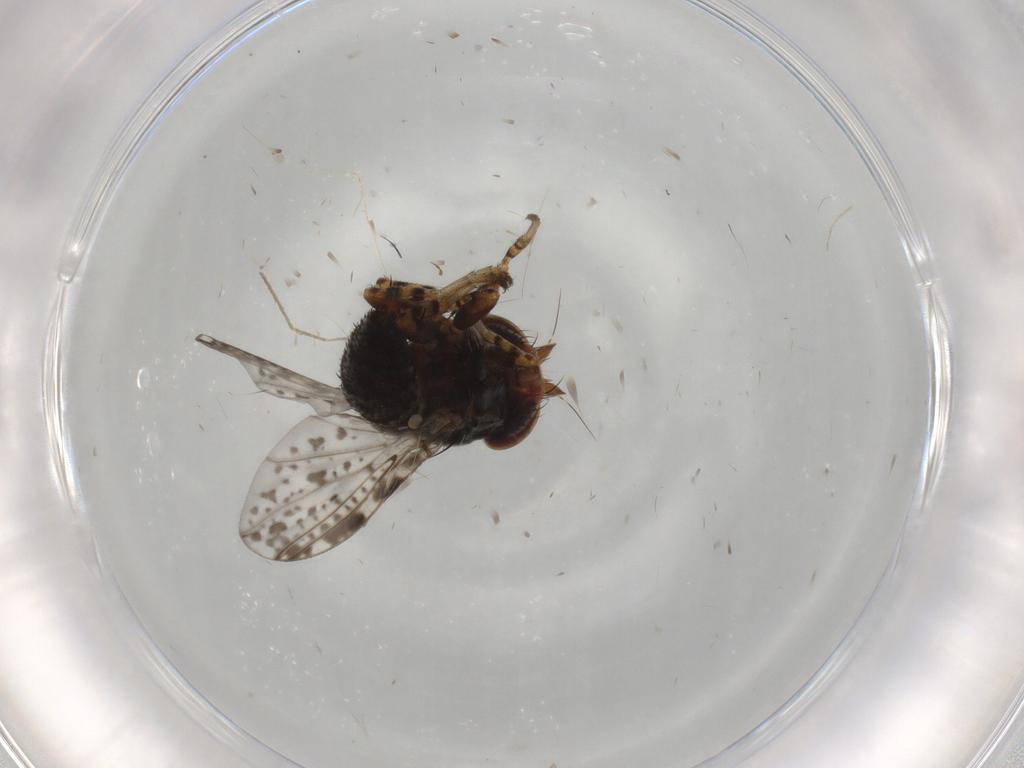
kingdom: Animalia
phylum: Arthropoda
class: Insecta
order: Diptera
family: Odiniidae
